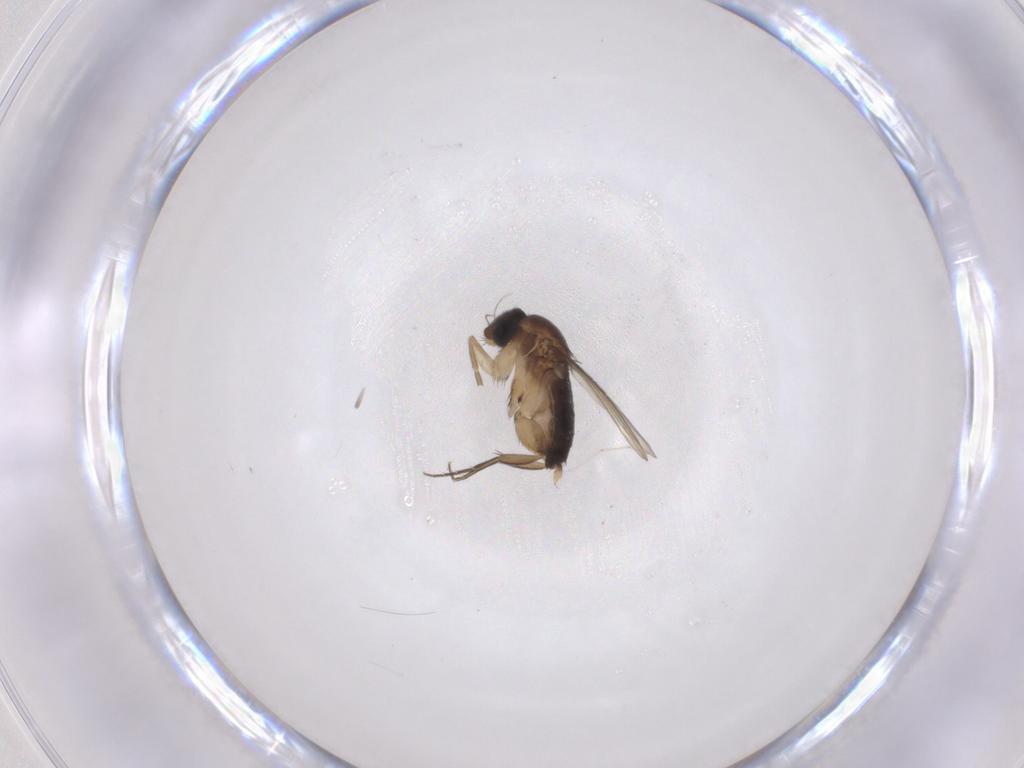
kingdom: Animalia
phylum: Arthropoda
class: Insecta
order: Diptera
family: Phoridae
